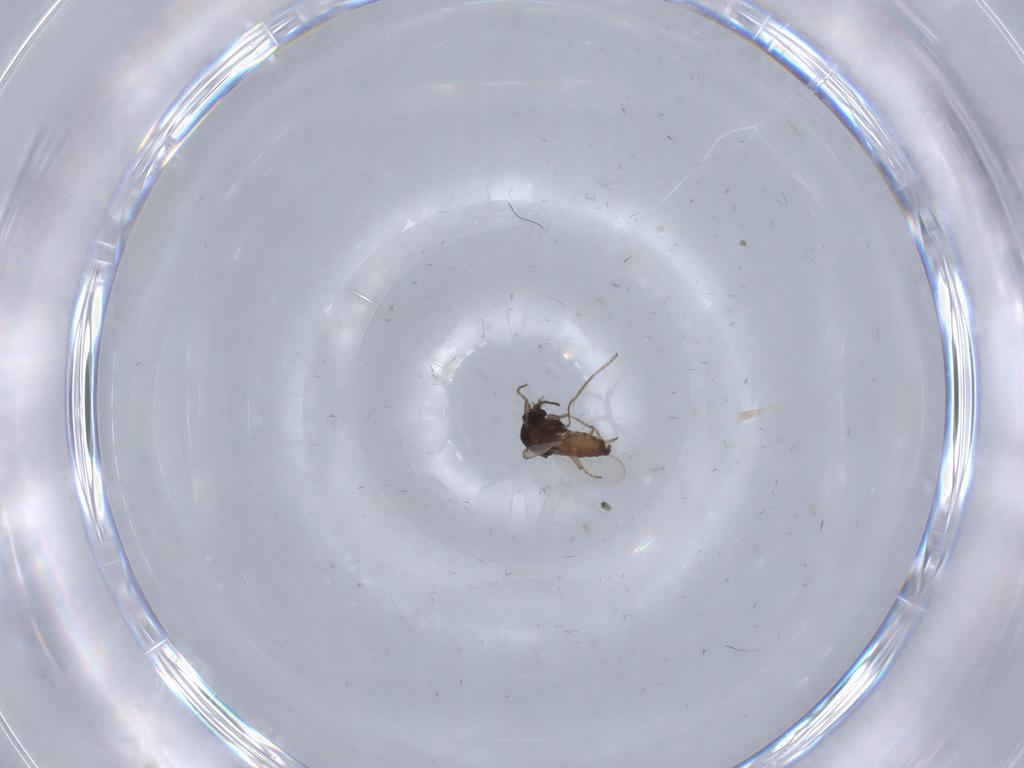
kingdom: Animalia
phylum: Arthropoda
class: Insecta
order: Diptera
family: Ceratopogonidae
